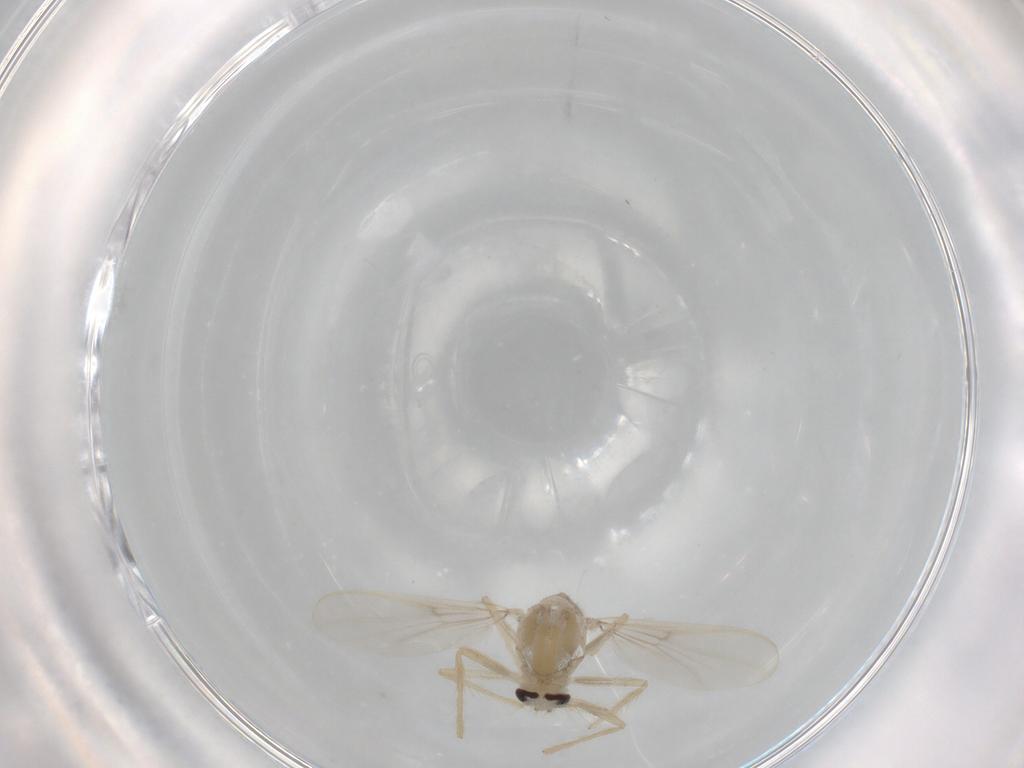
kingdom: Animalia
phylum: Arthropoda
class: Insecta
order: Diptera
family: Chironomidae
